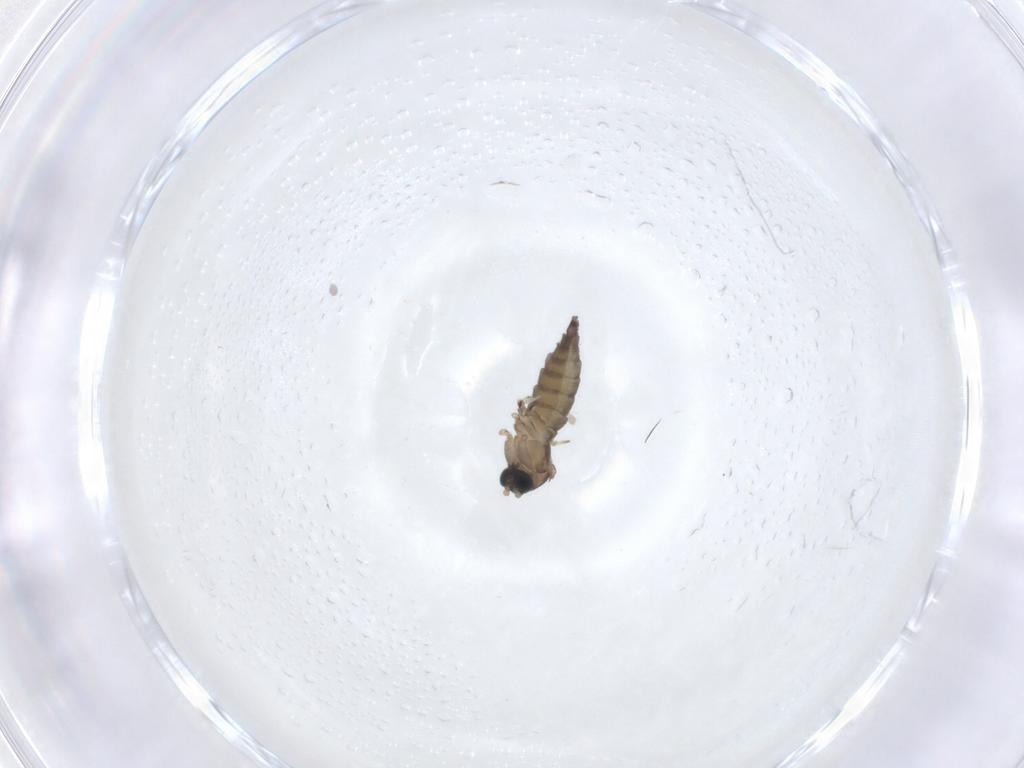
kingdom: Animalia
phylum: Arthropoda
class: Insecta
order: Diptera
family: Sciaridae
